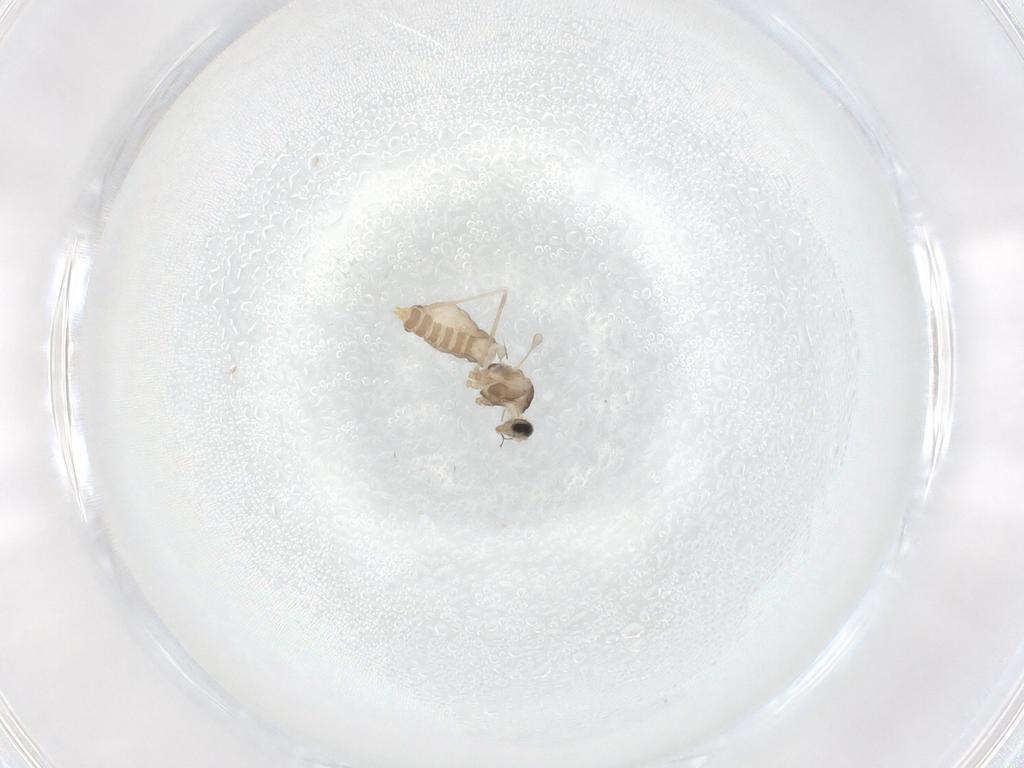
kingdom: Animalia
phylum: Arthropoda
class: Insecta
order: Diptera
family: Cecidomyiidae
